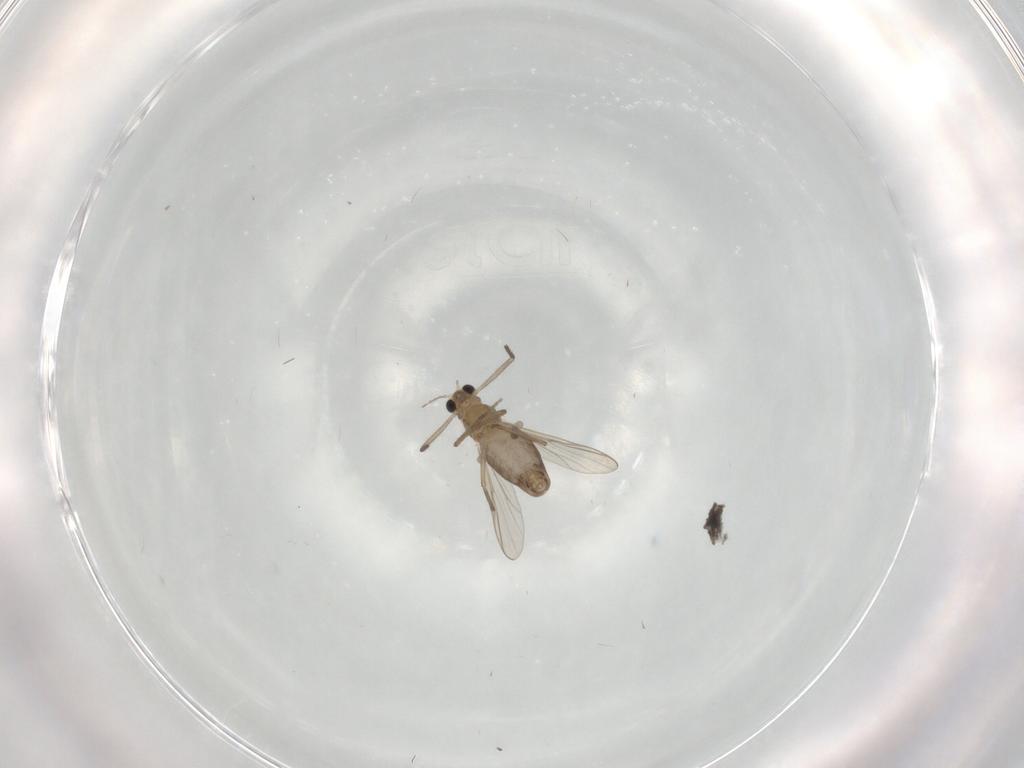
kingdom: Animalia
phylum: Arthropoda
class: Insecta
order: Diptera
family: Chironomidae
